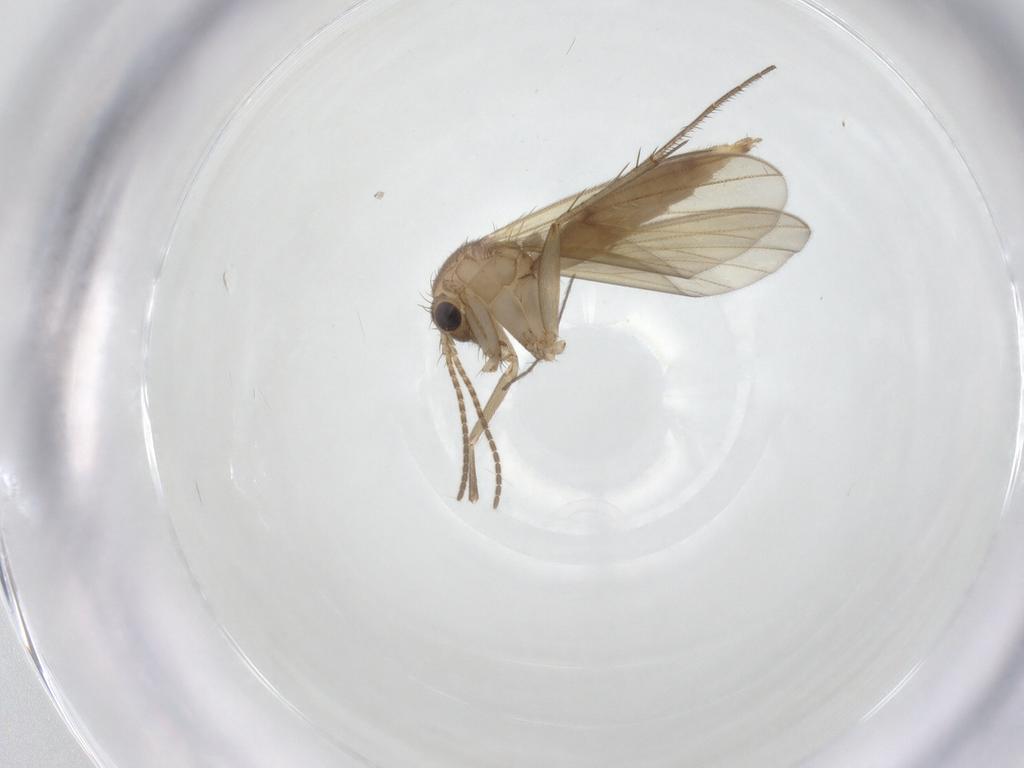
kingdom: Animalia
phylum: Arthropoda
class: Insecta
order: Diptera
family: Mycetophilidae
